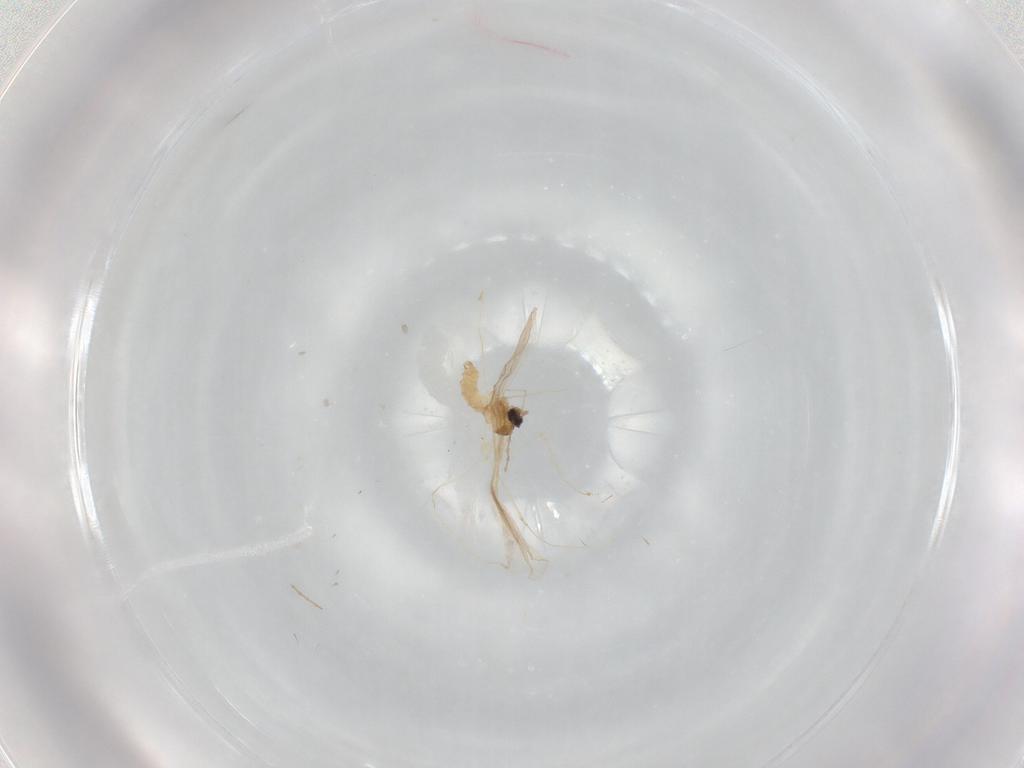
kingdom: Animalia
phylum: Arthropoda
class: Insecta
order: Diptera
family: Cecidomyiidae
